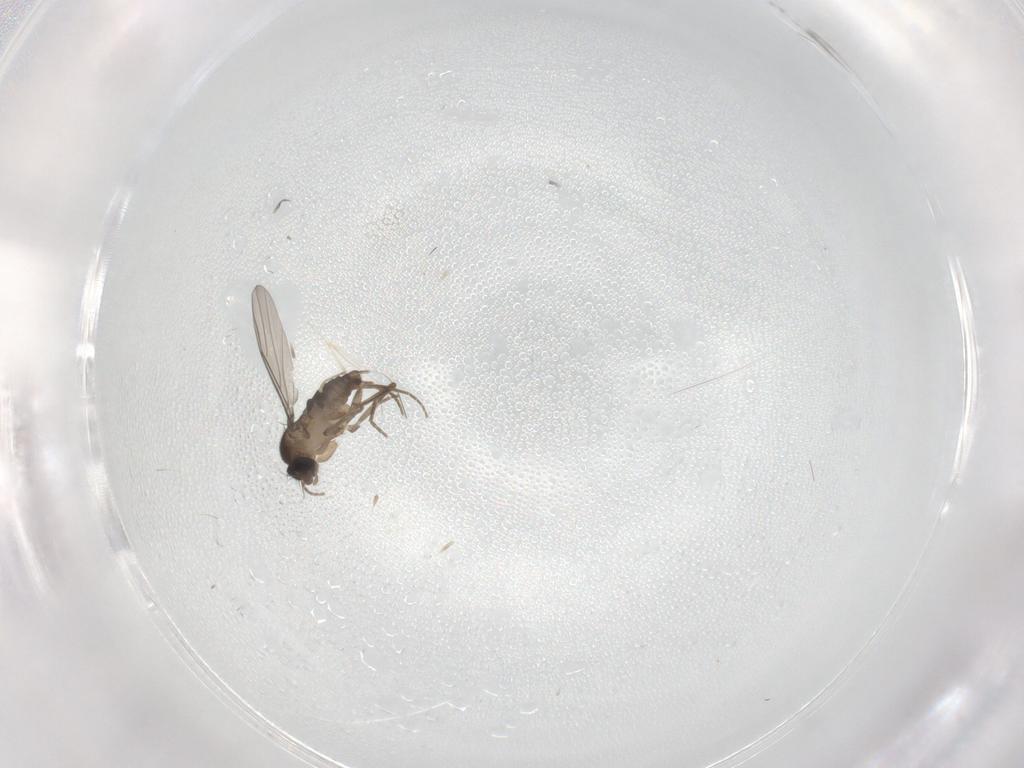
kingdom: Animalia
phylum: Arthropoda
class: Insecta
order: Diptera
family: Phoridae
